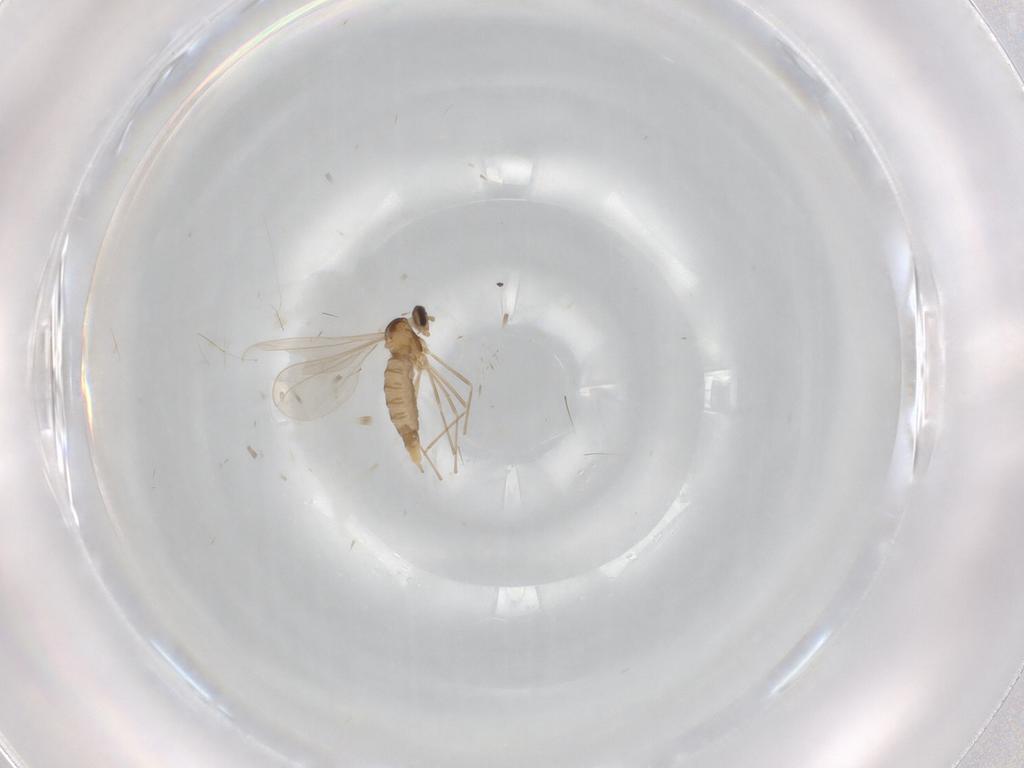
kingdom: Animalia
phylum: Arthropoda
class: Insecta
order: Diptera
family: Cecidomyiidae
